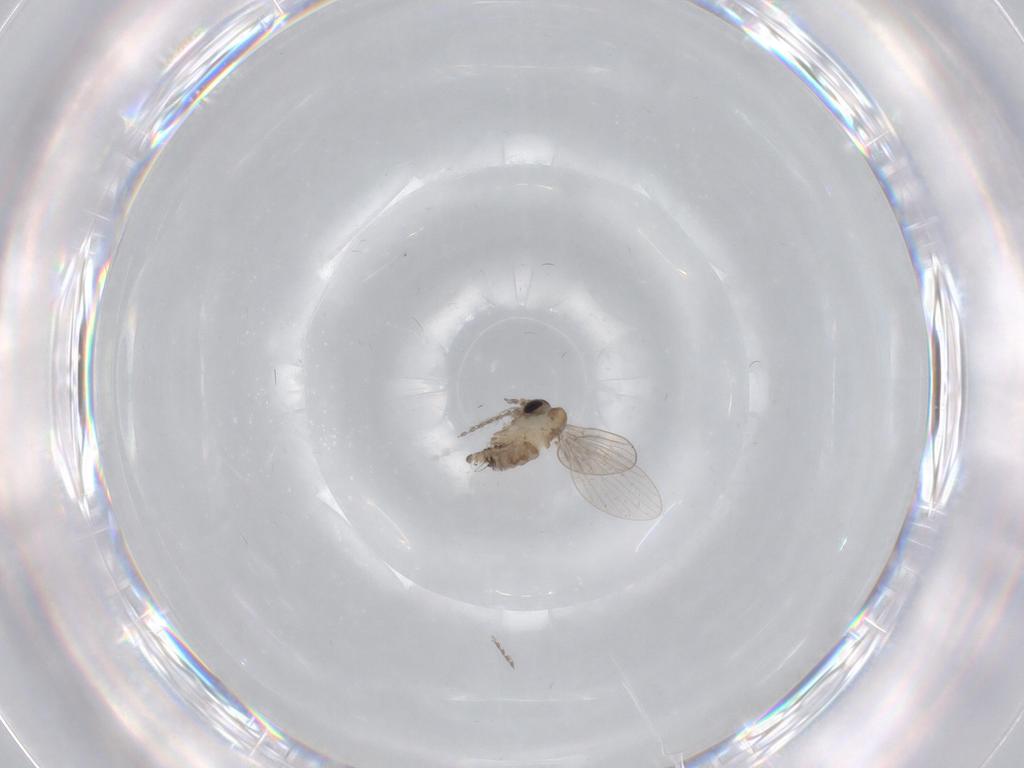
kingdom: Animalia
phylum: Arthropoda
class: Insecta
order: Diptera
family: Psychodidae
